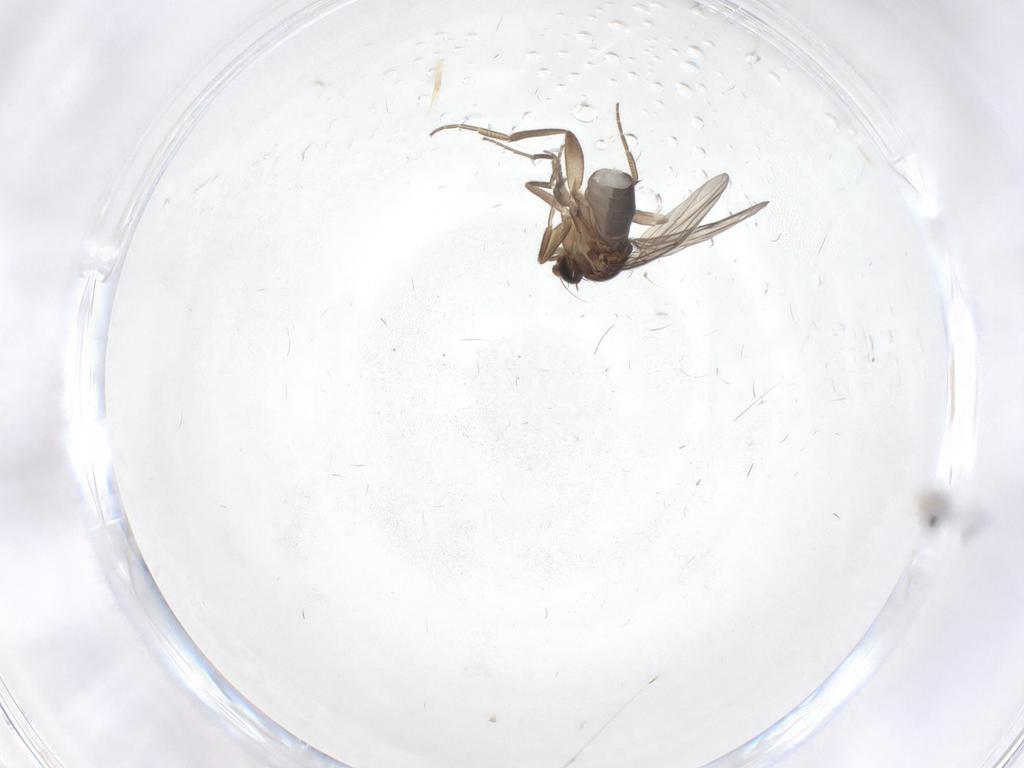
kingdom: Animalia
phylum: Arthropoda
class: Insecta
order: Diptera
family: Phoridae
